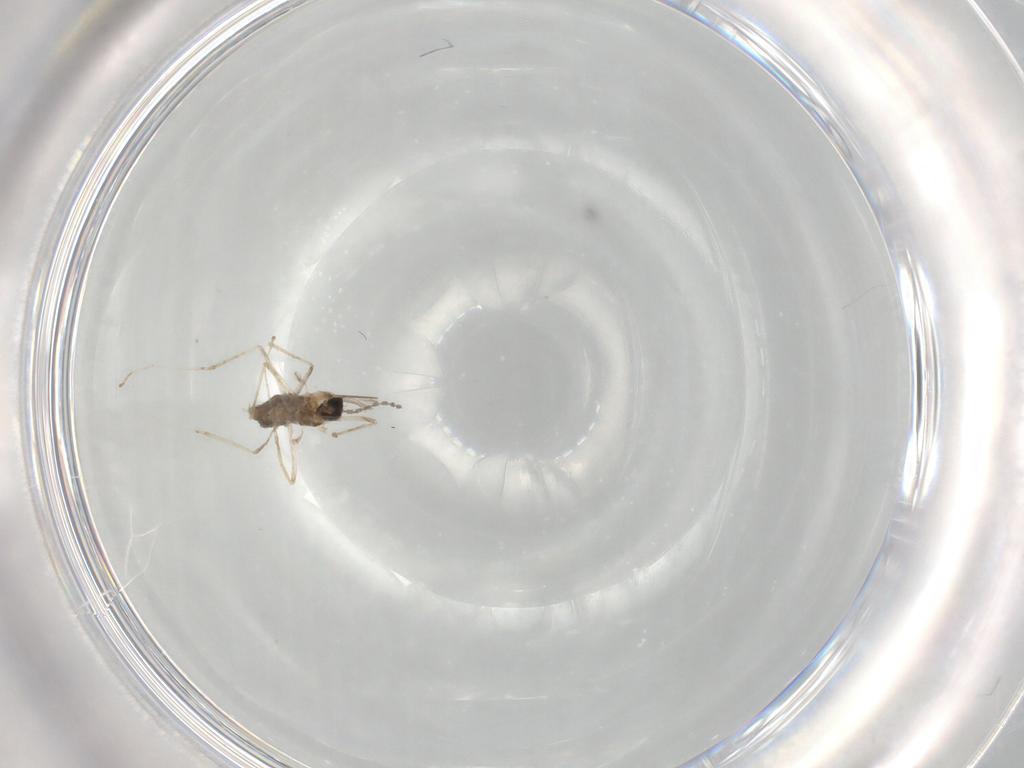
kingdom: Animalia
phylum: Arthropoda
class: Insecta
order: Diptera
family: Cecidomyiidae
